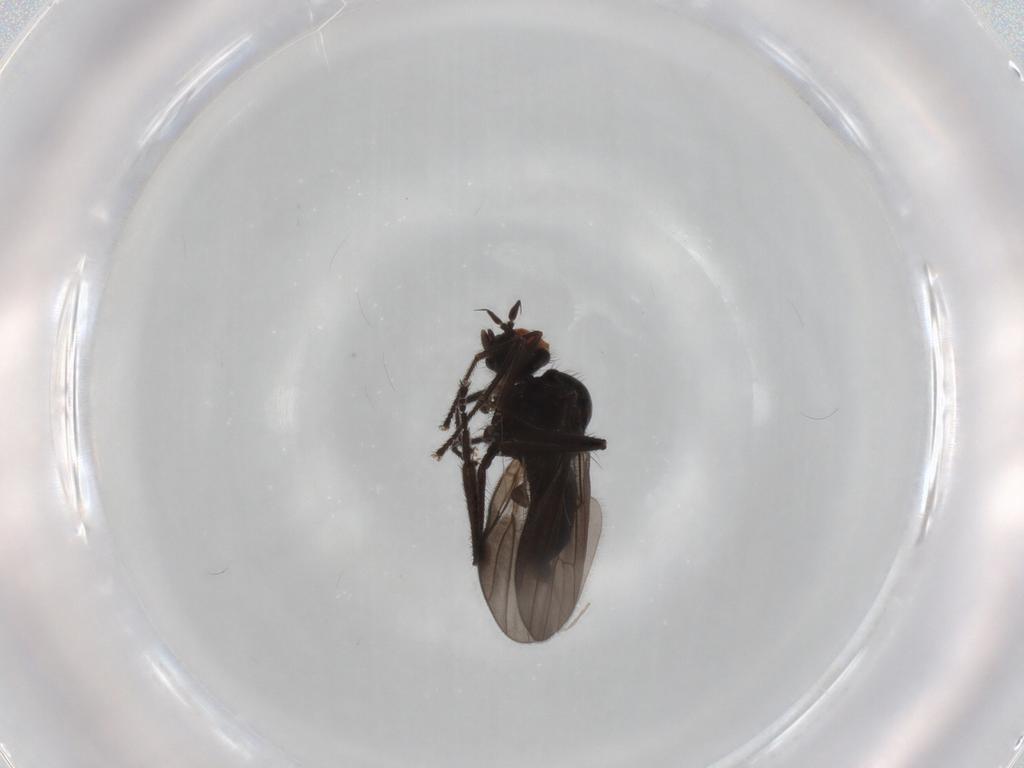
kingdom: Animalia
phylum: Arthropoda
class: Insecta
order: Diptera
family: Hybotidae
